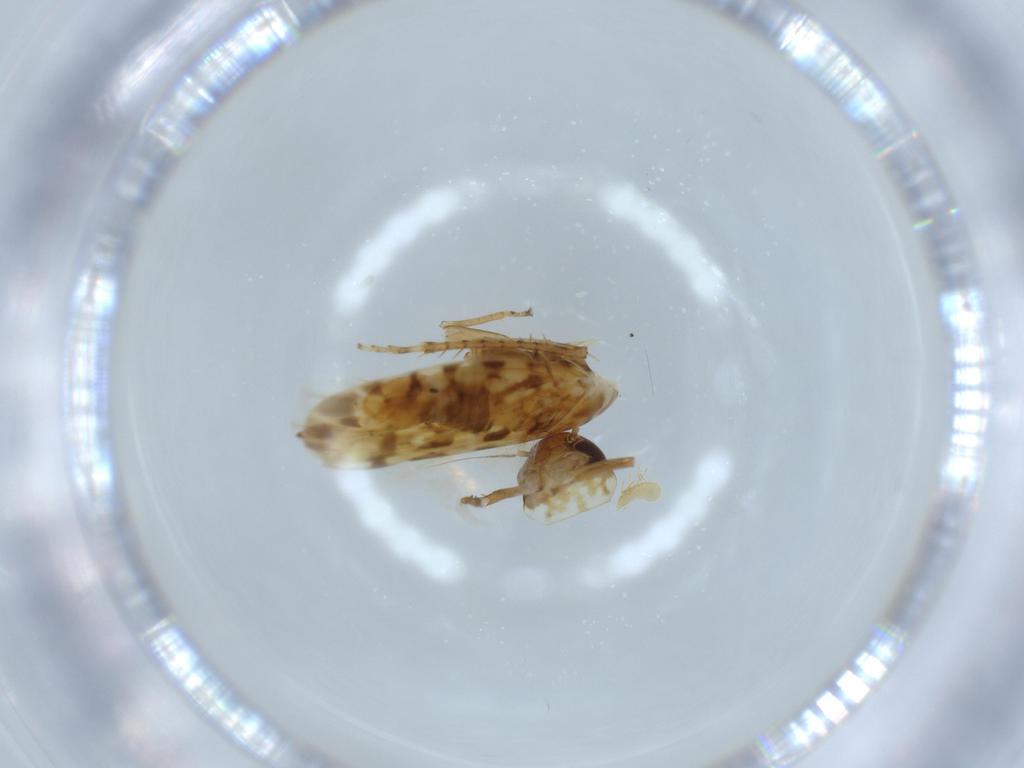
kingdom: Animalia
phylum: Arthropoda
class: Insecta
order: Hemiptera
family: Cicadellidae
